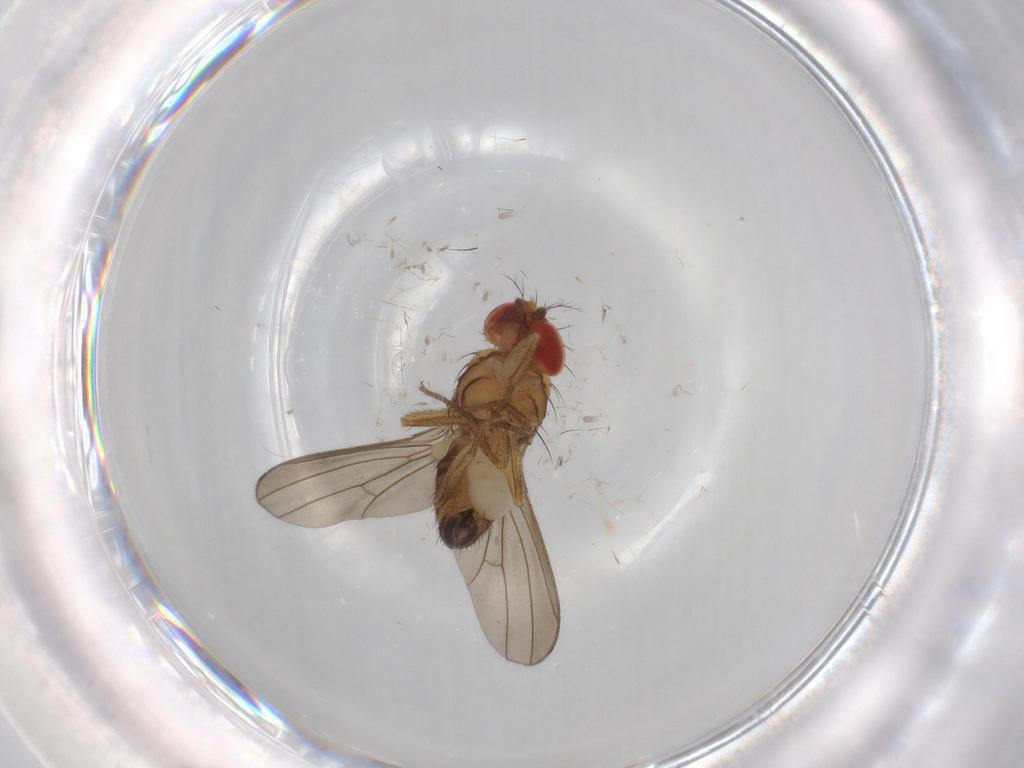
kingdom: Animalia
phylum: Arthropoda
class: Insecta
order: Diptera
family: Drosophilidae
